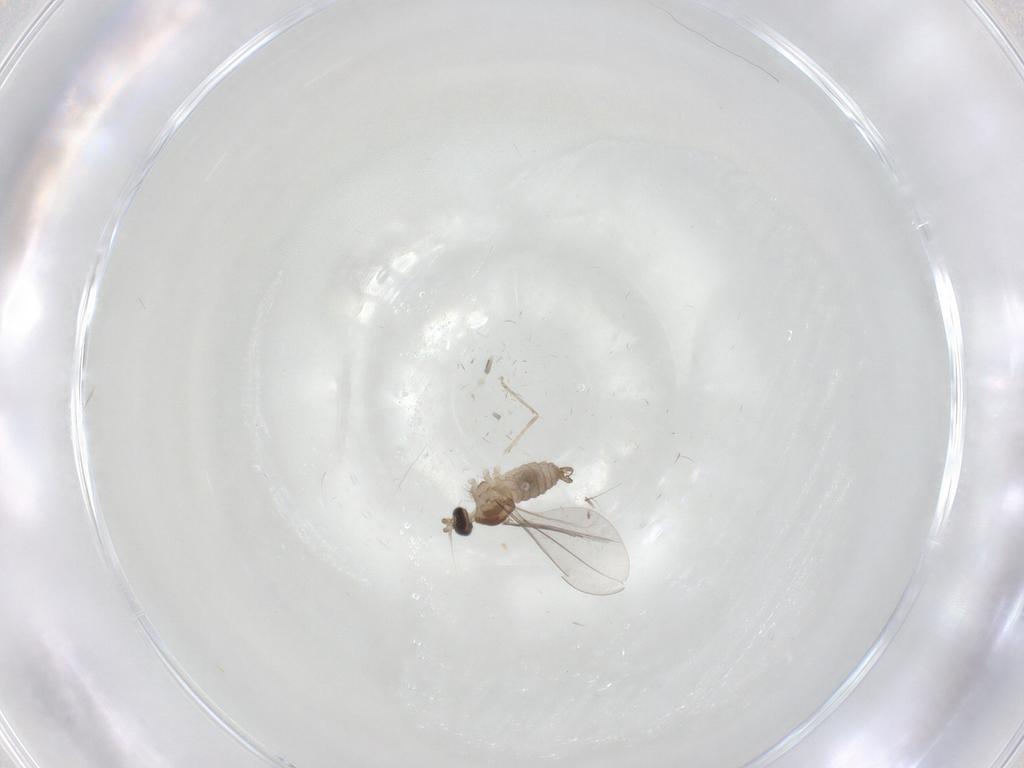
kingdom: Animalia
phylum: Arthropoda
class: Insecta
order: Diptera
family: Cecidomyiidae
